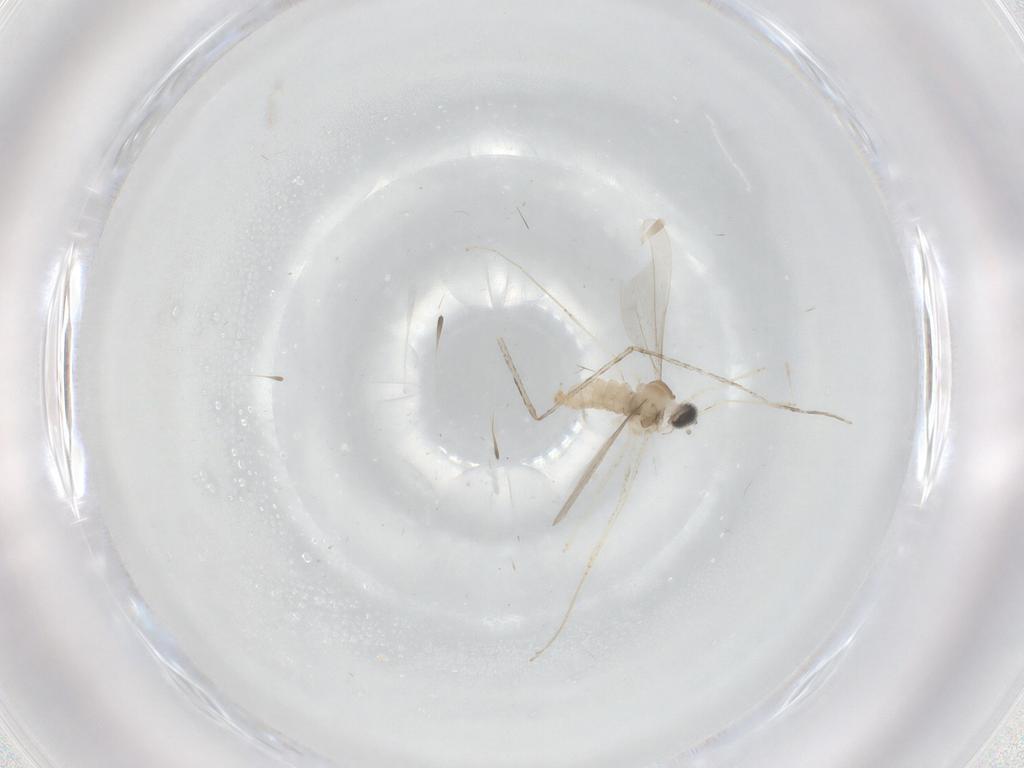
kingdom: Animalia
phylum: Arthropoda
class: Insecta
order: Diptera
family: Cecidomyiidae
